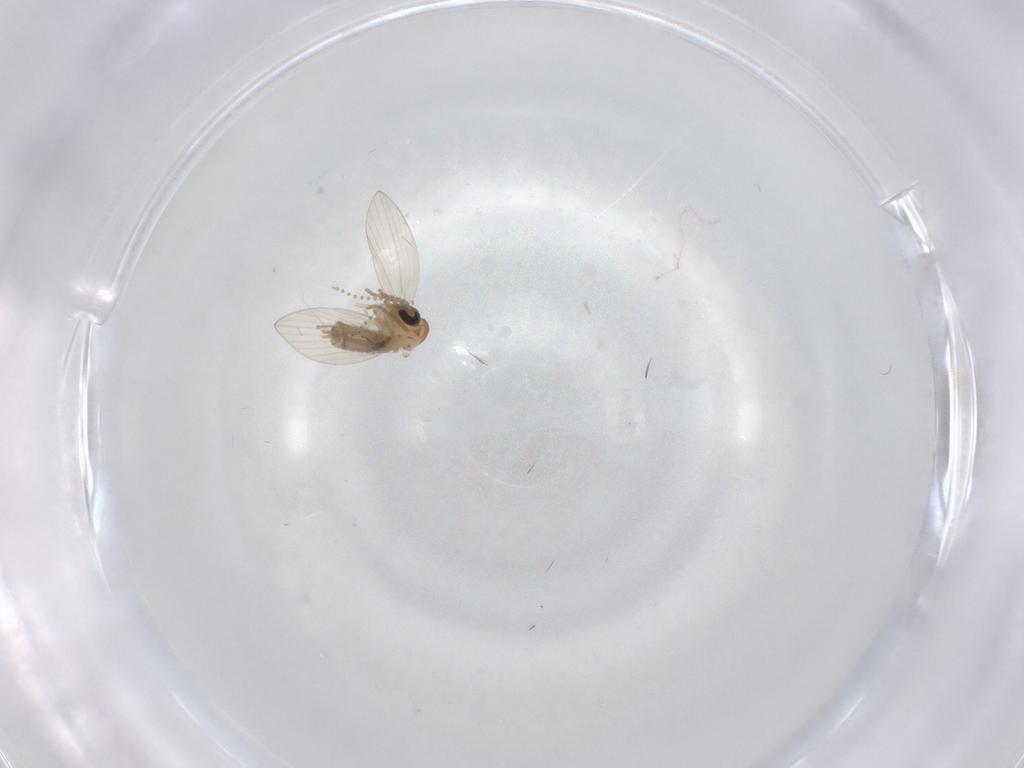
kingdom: Animalia
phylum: Arthropoda
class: Insecta
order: Diptera
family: Psychodidae
